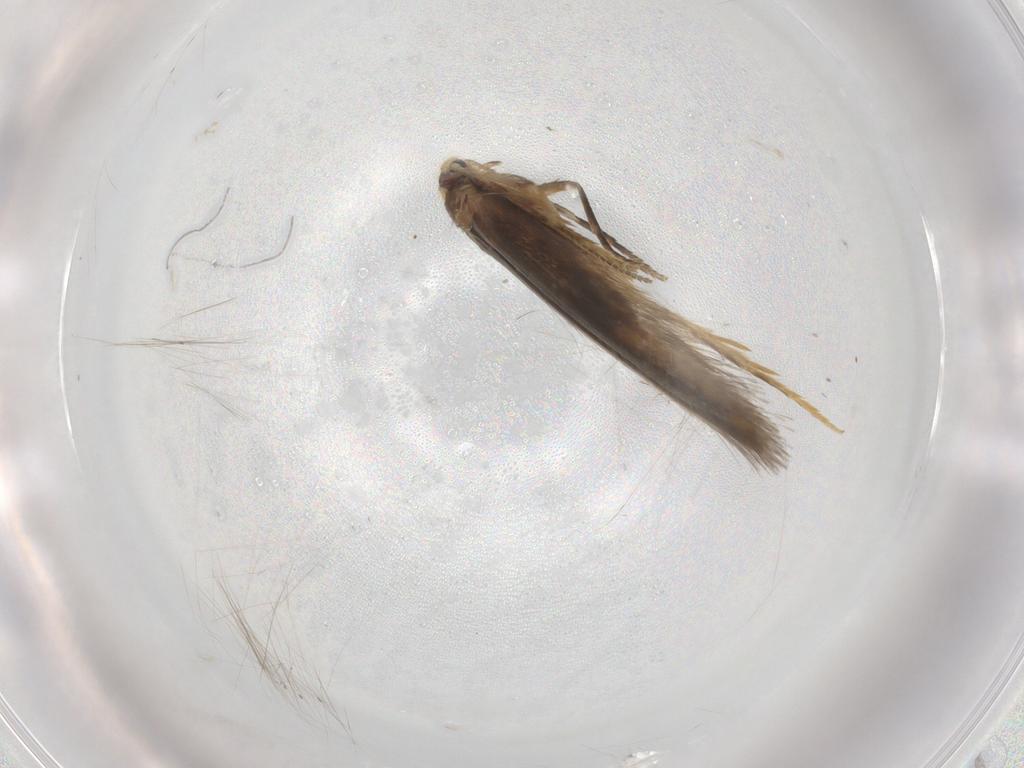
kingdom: Animalia
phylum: Arthropoda
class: Insecta
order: Lepidoptera
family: Nepticulidae
